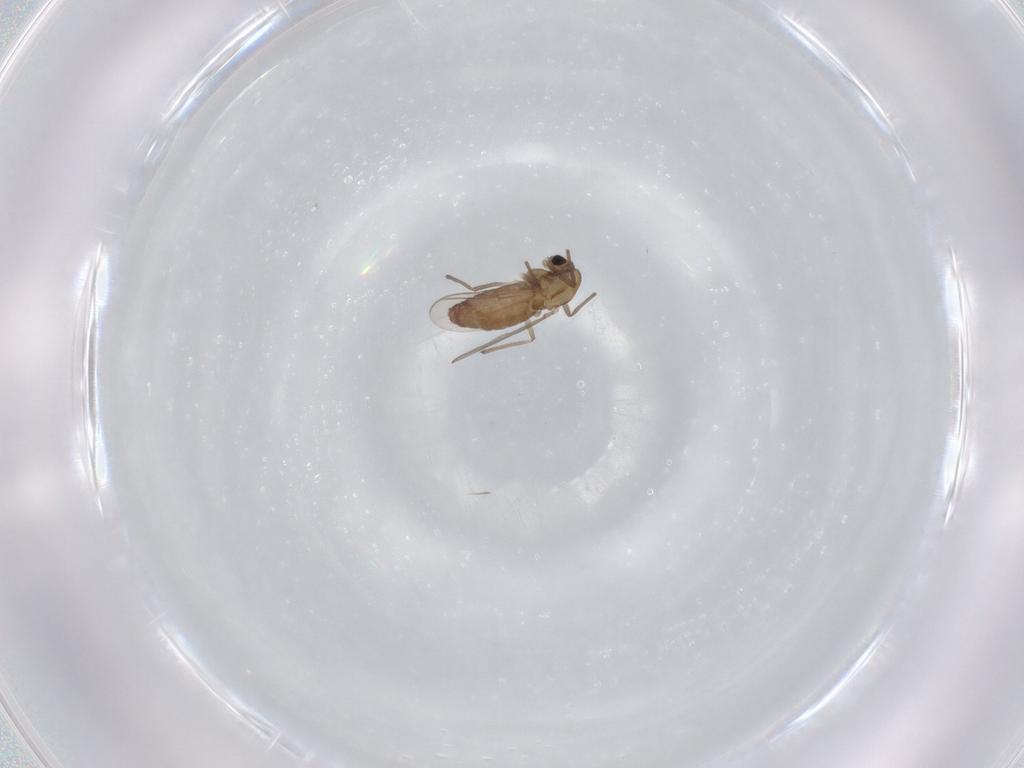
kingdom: Animalia
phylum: Arthropoda
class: Insecta
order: Diptera
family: Chironomidae
